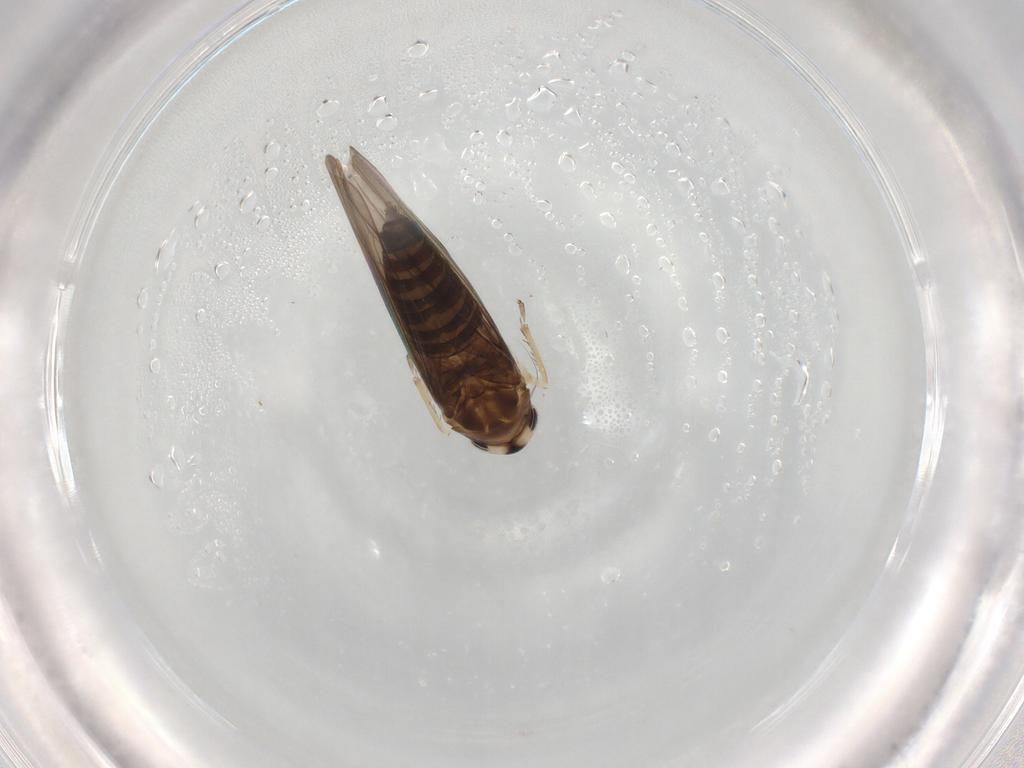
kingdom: Animalia
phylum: Arthropoda
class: Insecta
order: Hemiptera
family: Cicadellidae
